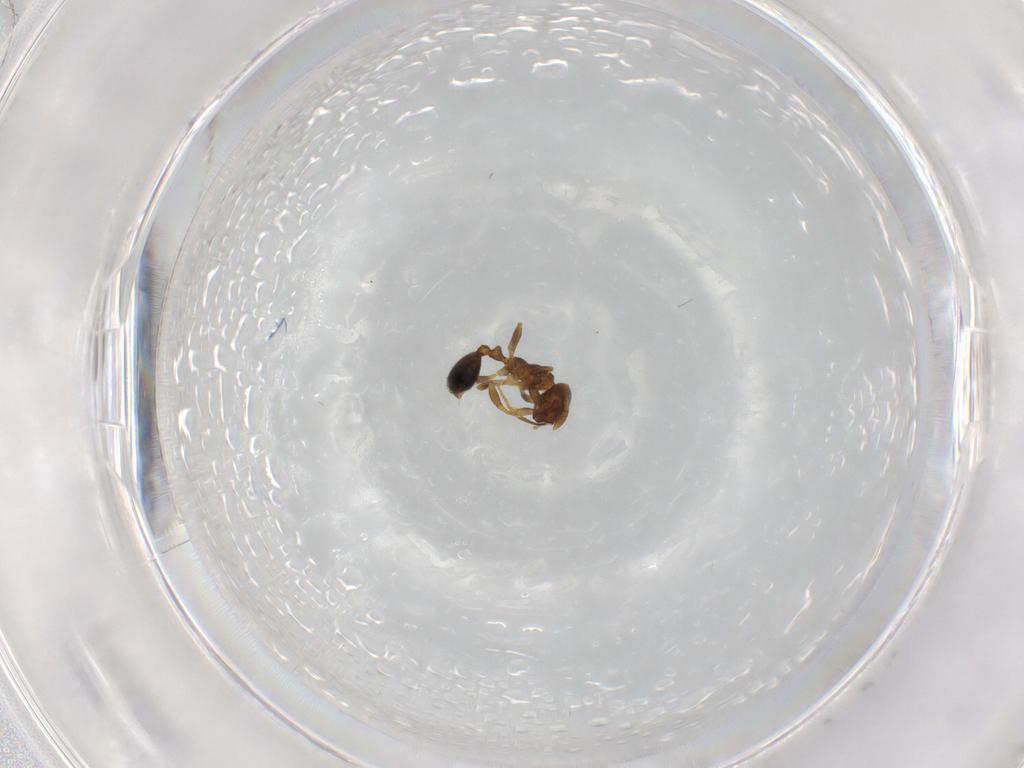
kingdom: Animalia
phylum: Arthropoda
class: Insecta
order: Hymenoptera
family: Formicidae
